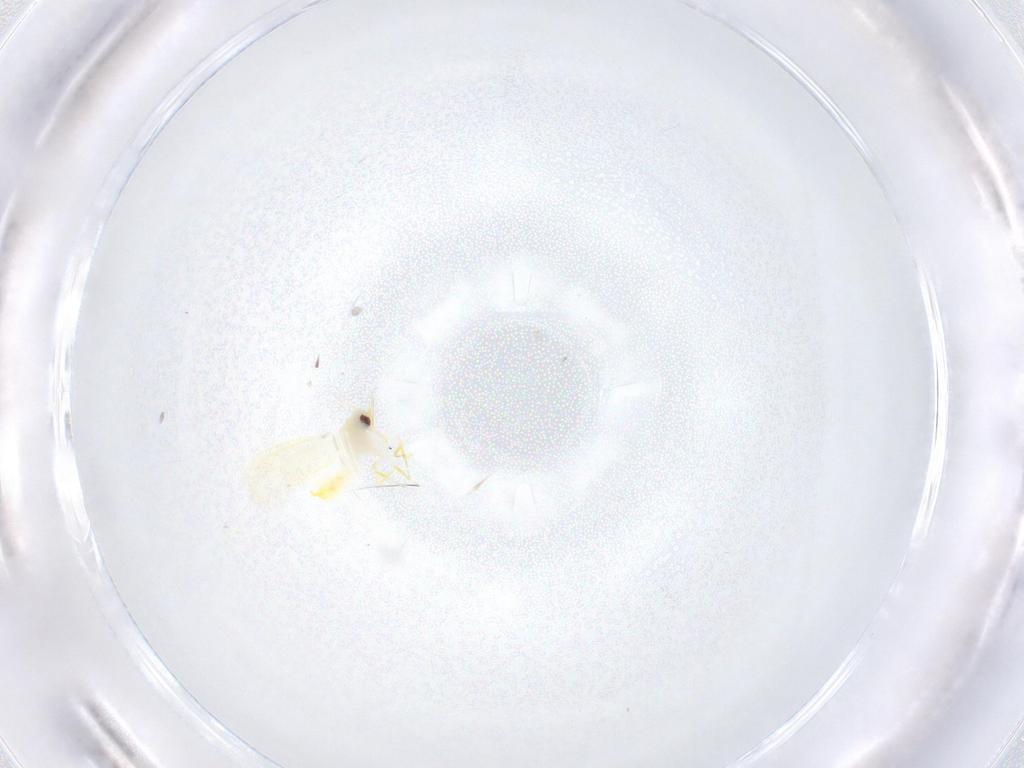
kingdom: Animalia
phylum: Arthropoda
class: Insecta
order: Hemiptera
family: Aleyrodidae
